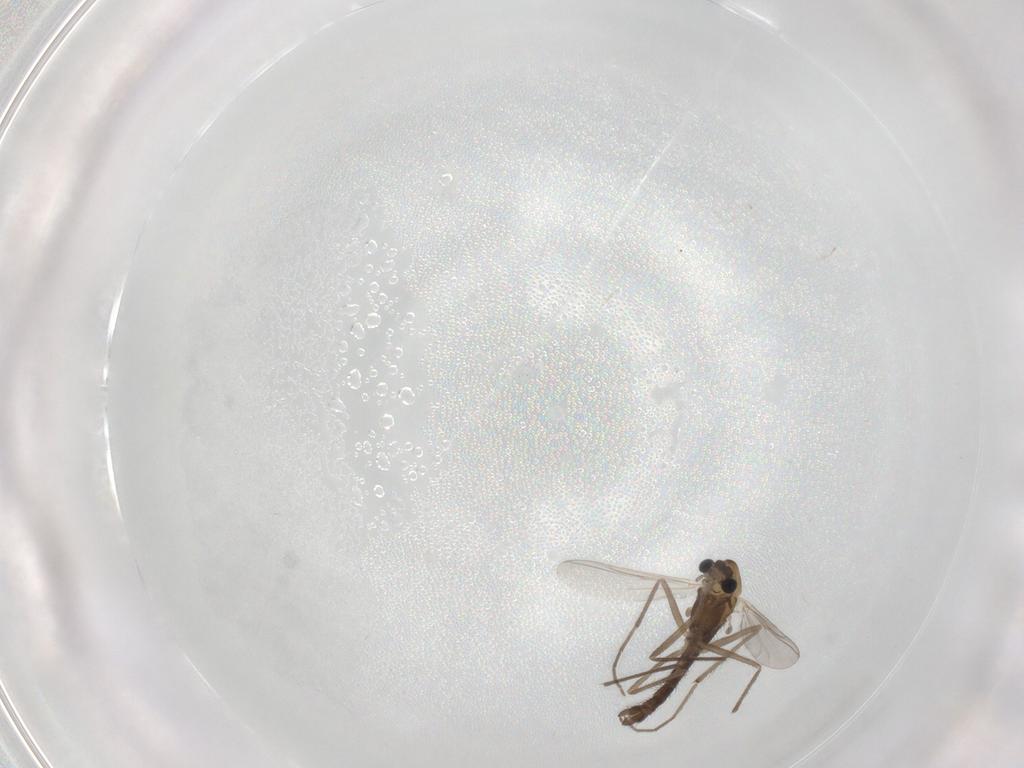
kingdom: Animalia
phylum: Arthropoda
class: Insecta
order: Diptera
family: Chironomidae
